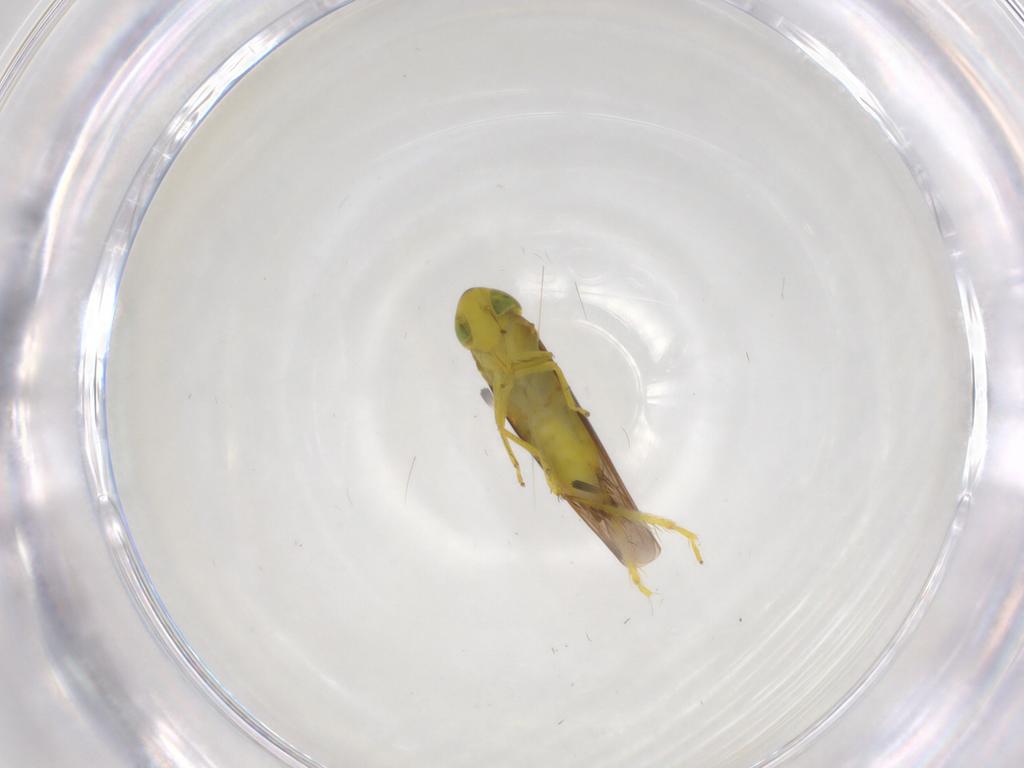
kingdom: Animalia
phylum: Arthropoda
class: Insecta
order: Hemiptera
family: Cicadellidae
